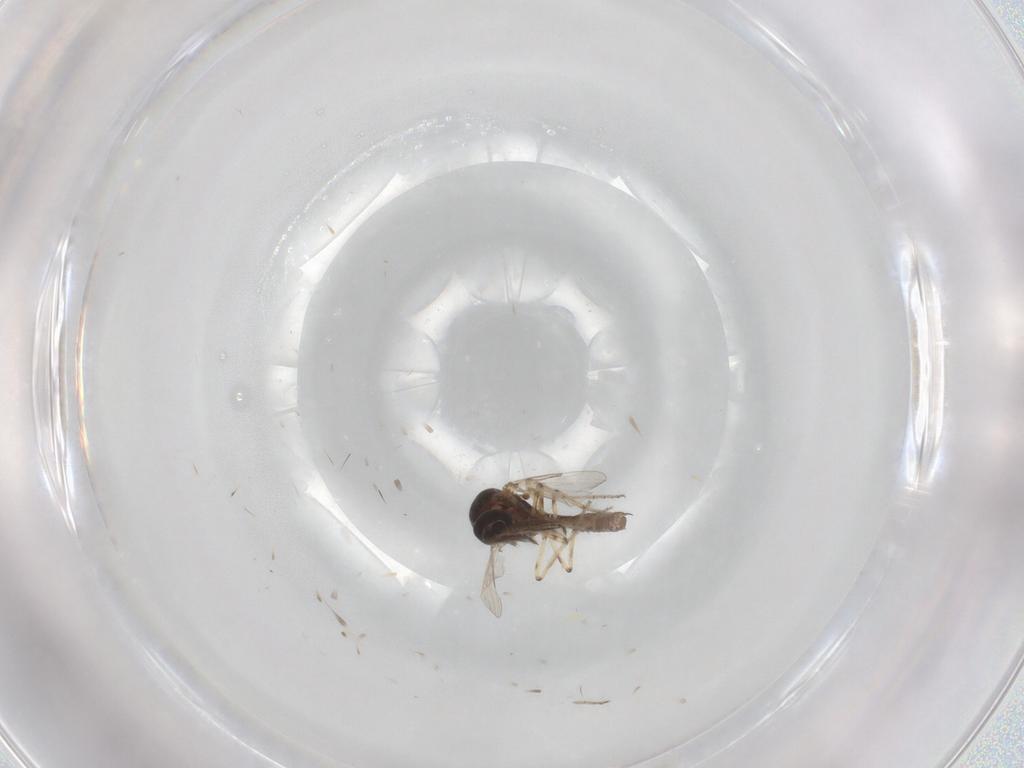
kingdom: Animalia
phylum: Arthropoda
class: Insecta
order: Diptera
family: Ceratopogonidae
